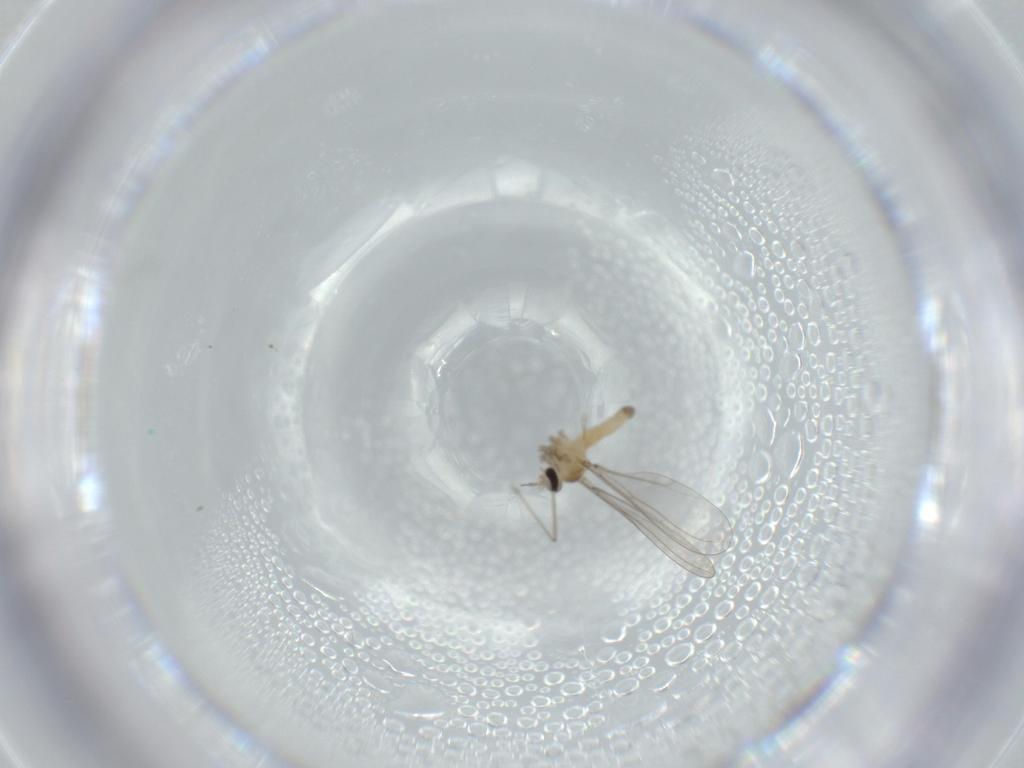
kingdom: Animalia
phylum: Arthropoda
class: Insecta
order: Diptera
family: Cecidomyiidae
